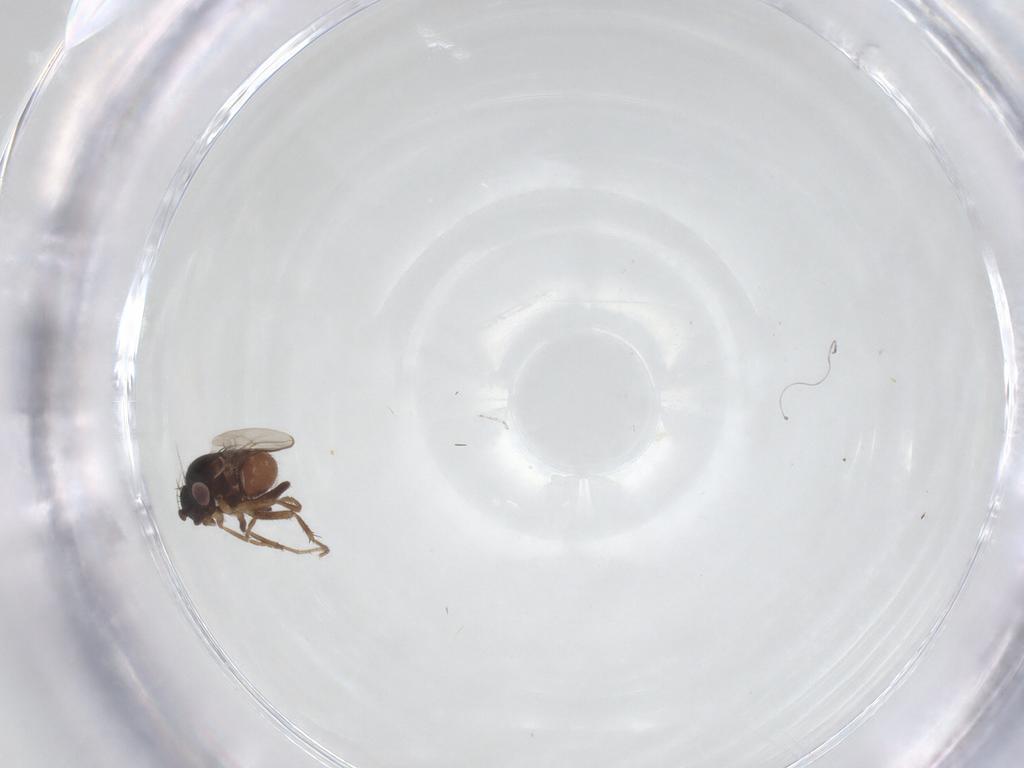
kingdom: Animalia
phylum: Arthropoda
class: Insecta
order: Diptera
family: Sphaeroceridae
